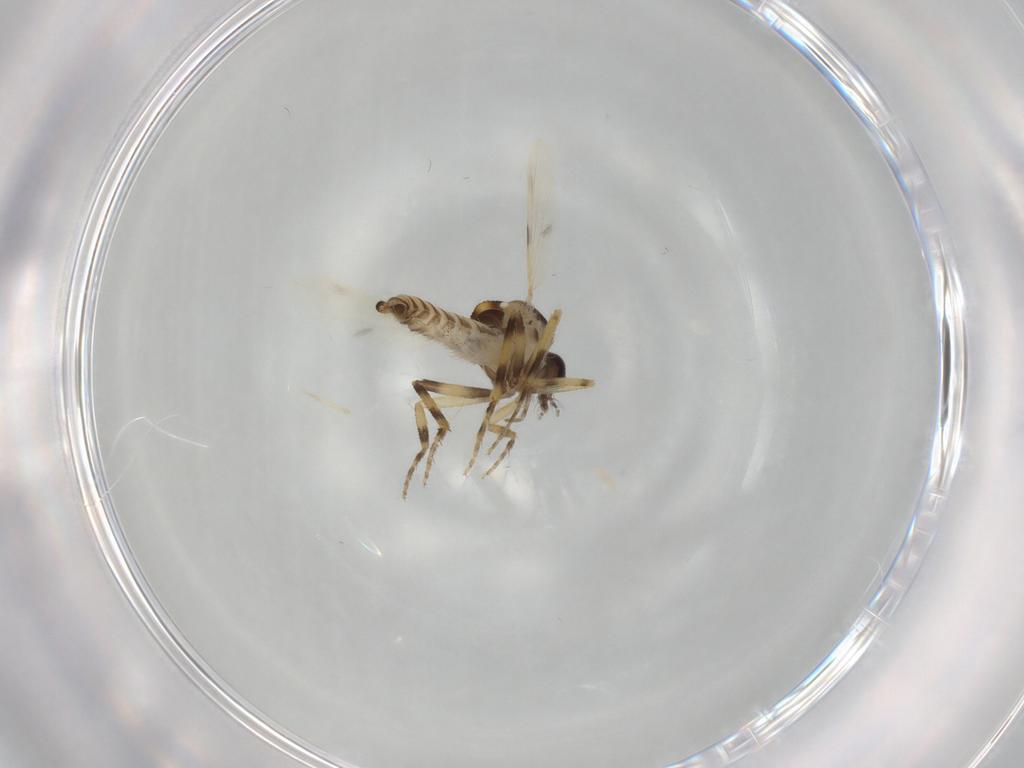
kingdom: Animalia
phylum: Arthropoda
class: Insecta
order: Diptera
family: Ceratopogonidae
